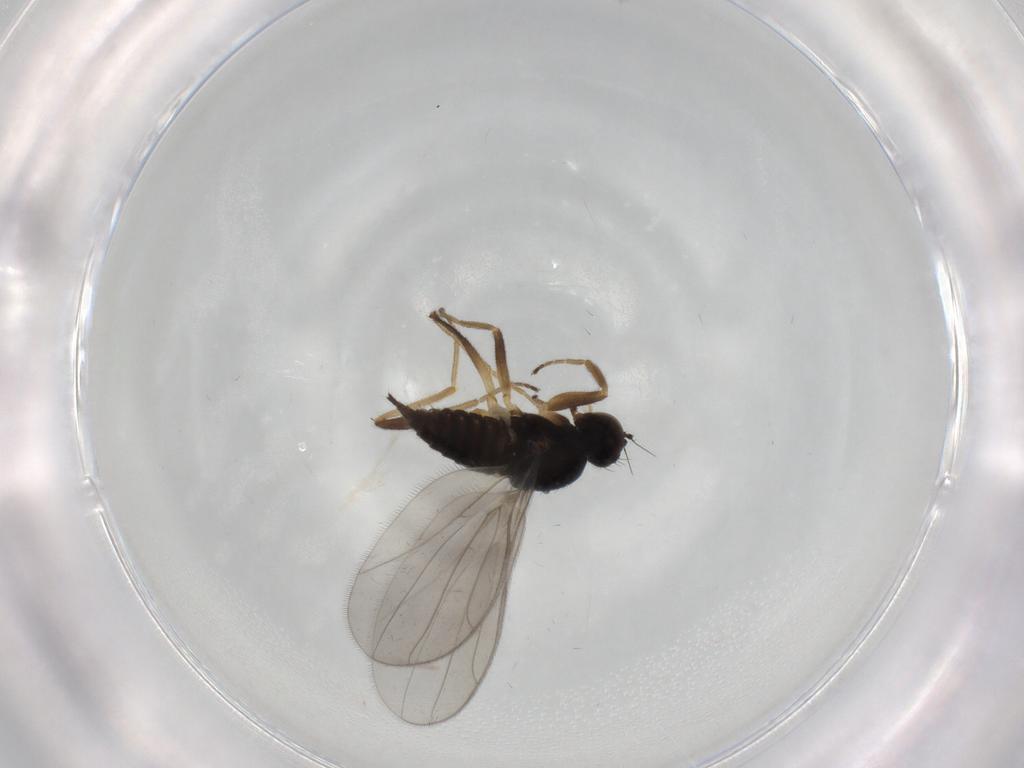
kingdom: Animalia
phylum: Arthropoda
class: Insecta
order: Diptera
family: Hybotidae
